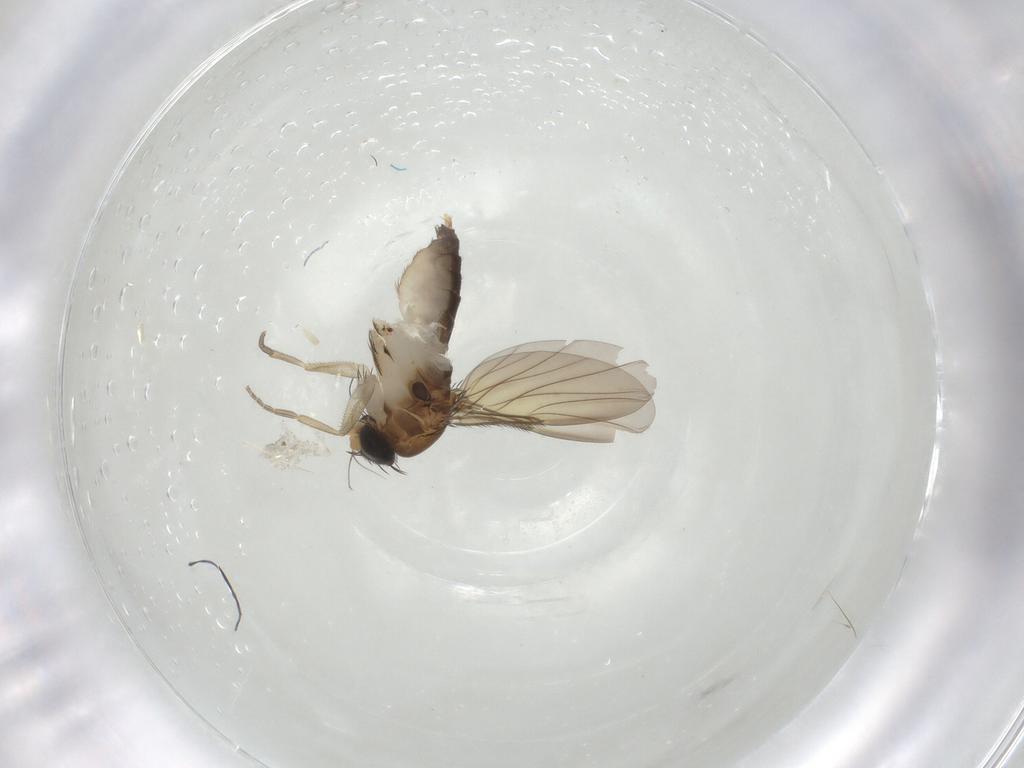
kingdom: Animalia
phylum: Arthropoda
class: Insecta
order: Diptera
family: Phoridae
